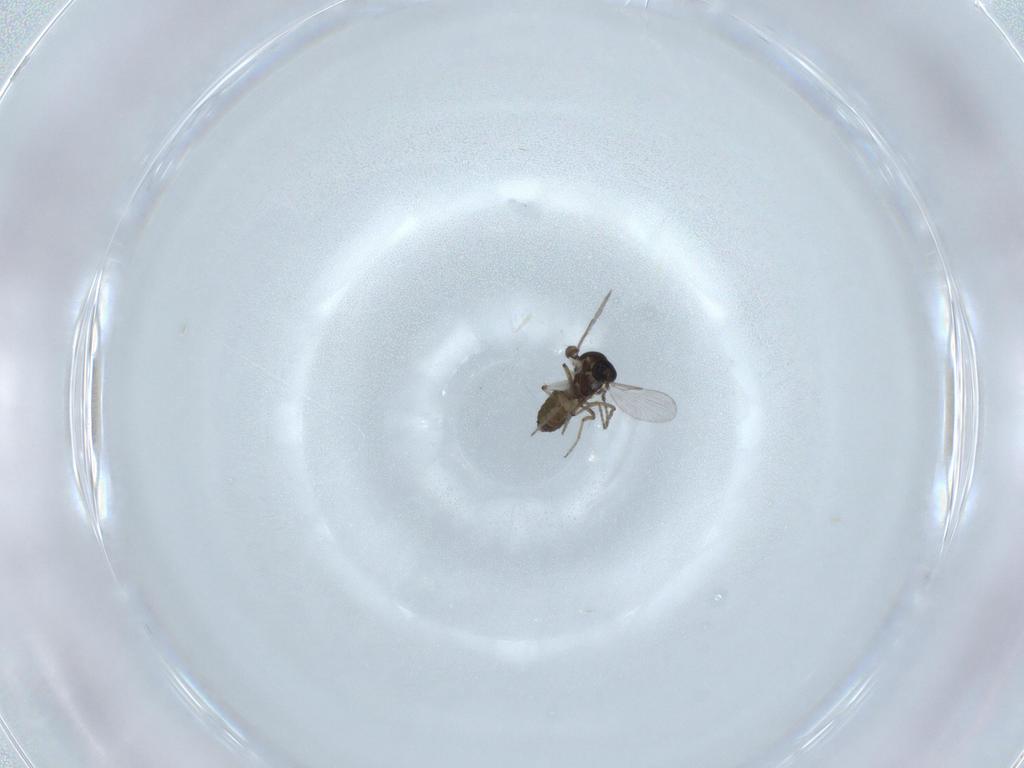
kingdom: Animalia
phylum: Arthropoda
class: Insecta
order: Diptera
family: Ceratopogonidae
